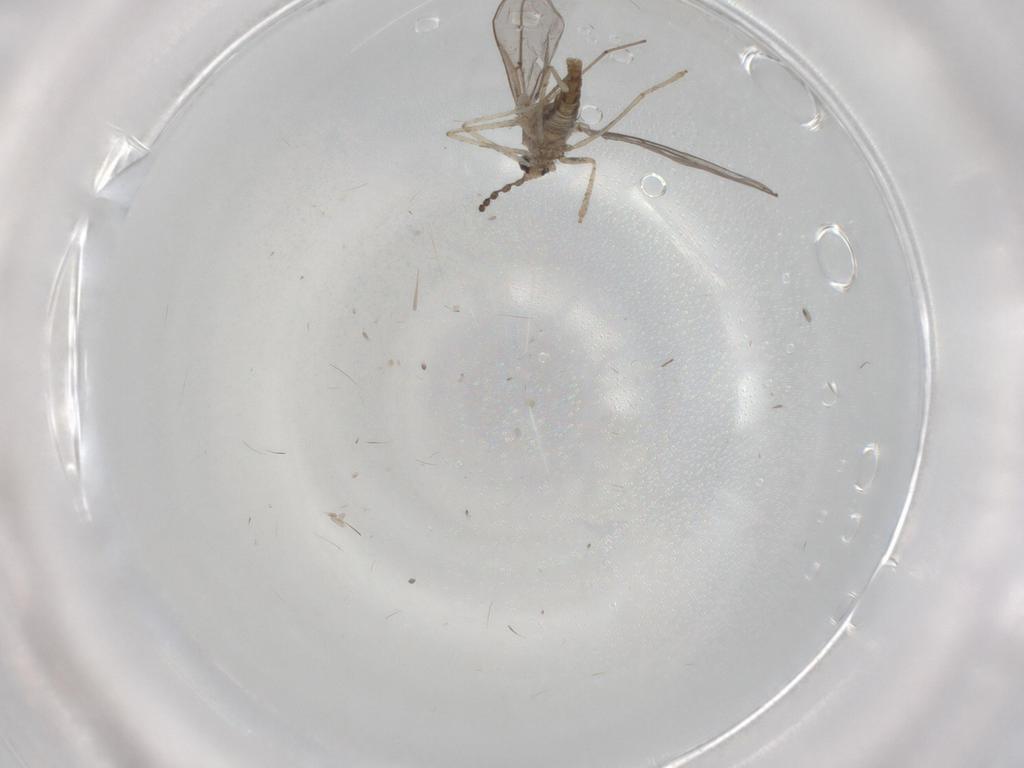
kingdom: Animalia
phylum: Arthropoda
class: Insecta
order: Diptera
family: Cecidomyiidae
